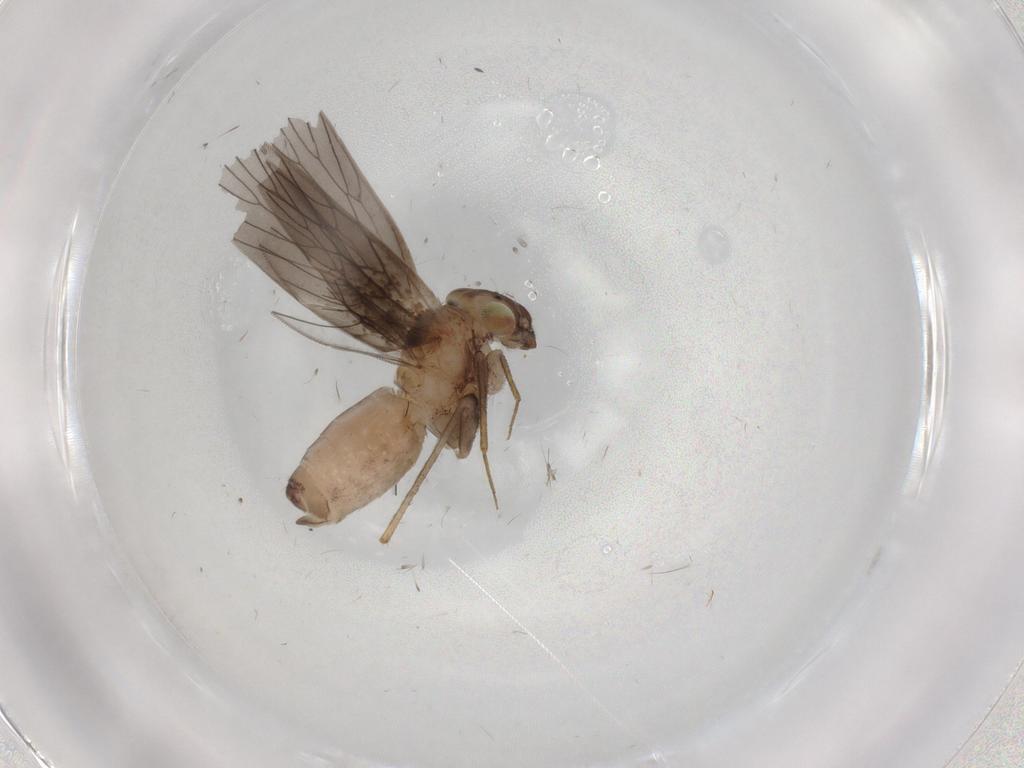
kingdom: Animalia
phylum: Arthropoda
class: Insecta
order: Psocodea
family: Lepidopsocidae
